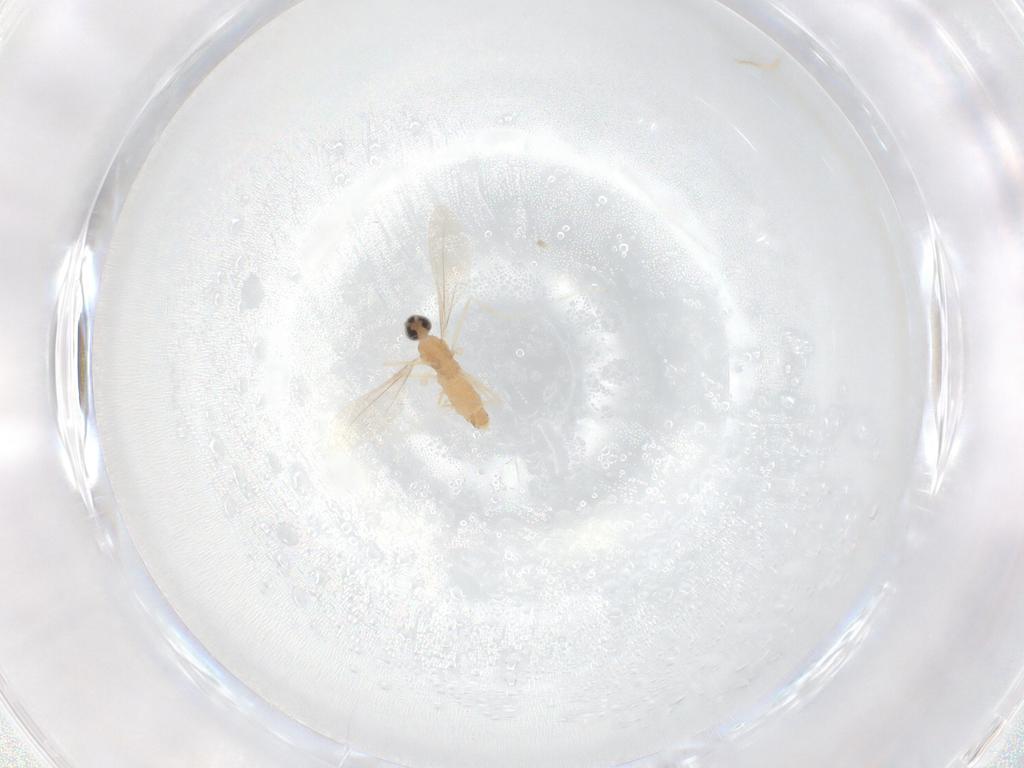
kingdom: Animalia
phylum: Arthropoda
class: Insecta
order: Diptera
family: Cecidomyiidae
